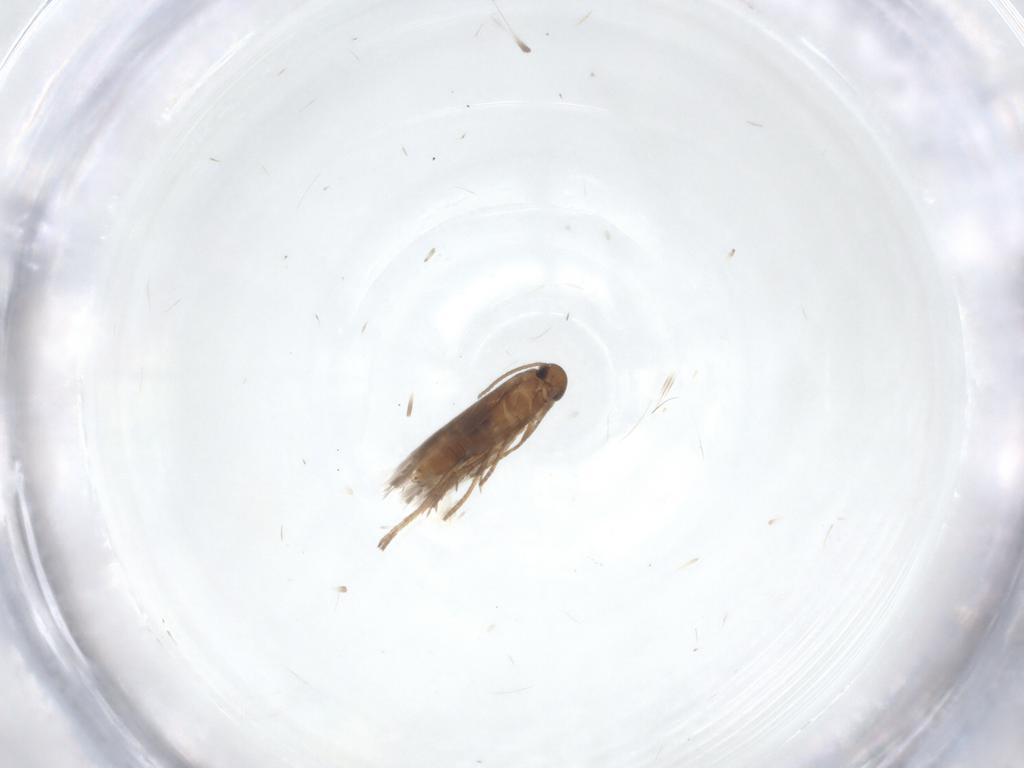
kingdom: Animalia
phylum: Arthropoda
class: Insecta
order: Lepidoptera
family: Heliozelidae
